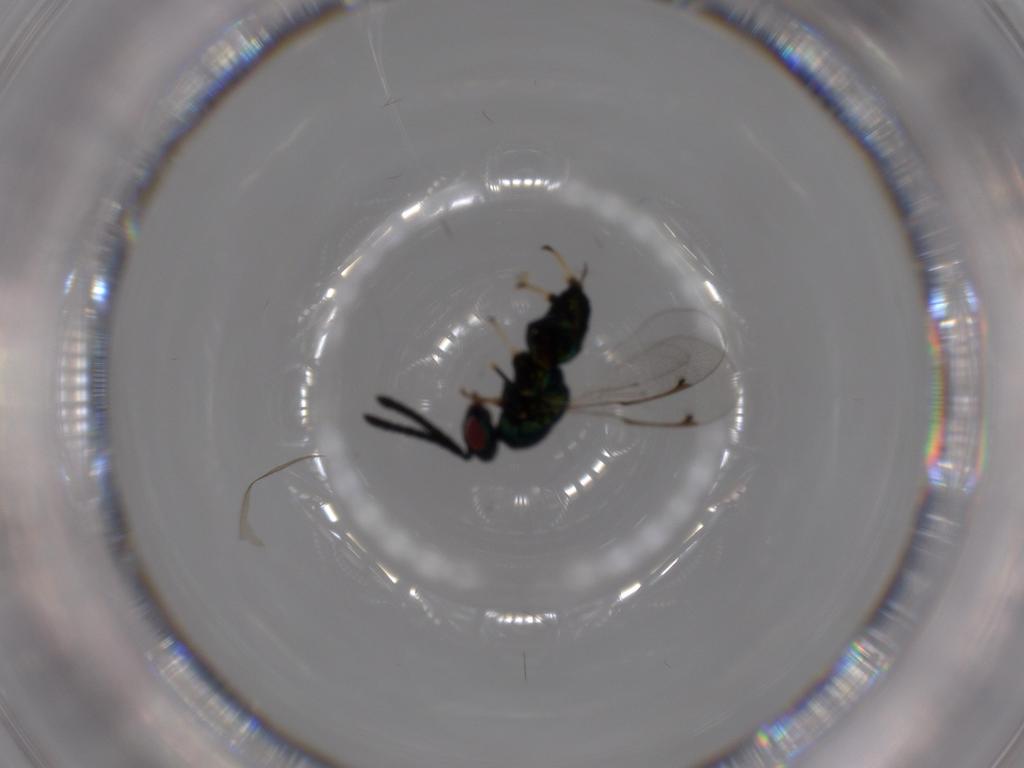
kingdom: Animalia
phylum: Arthropoda
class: Insecta
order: Hymenoptera
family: Torymidae
